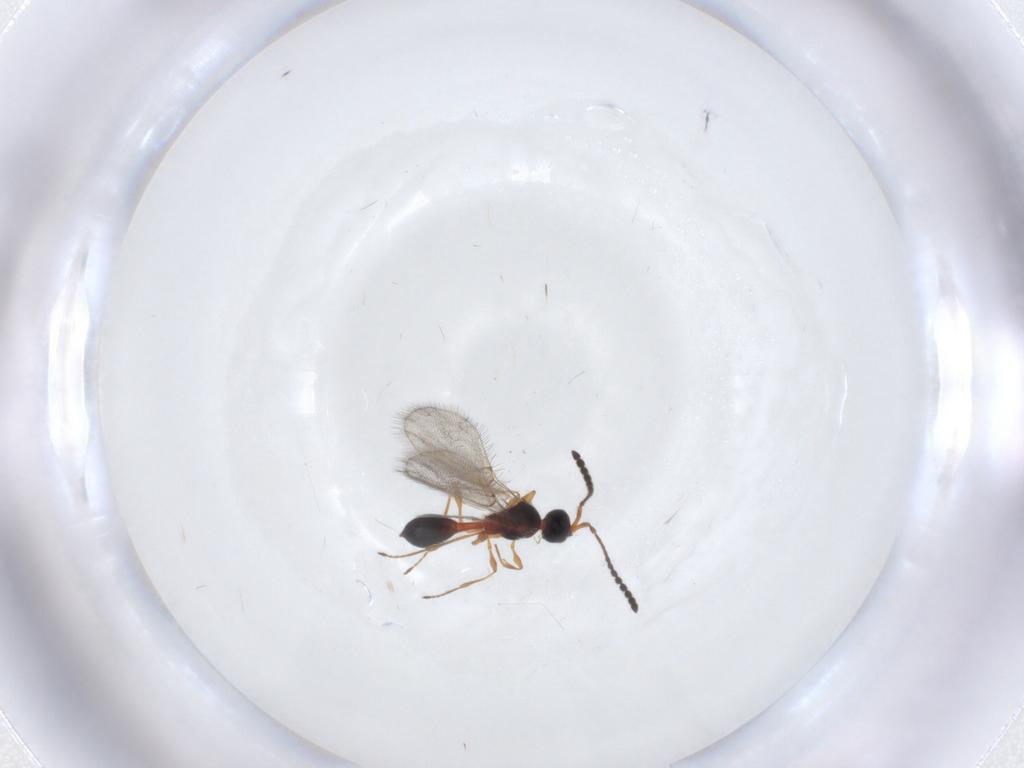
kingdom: Animalia
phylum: Arthropoda
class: Insecta
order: Hymenoptera
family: Diapriidae
